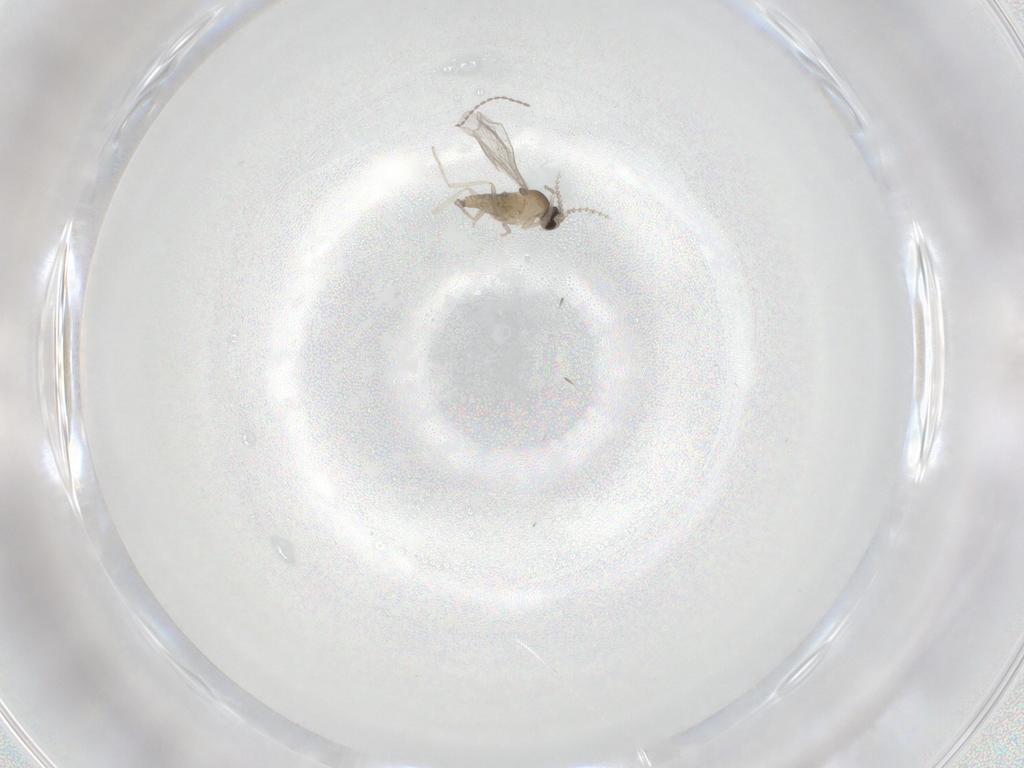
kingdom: Animalia
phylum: Arthropoda
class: Insecta
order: Diptera
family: Cecidomyiidae
